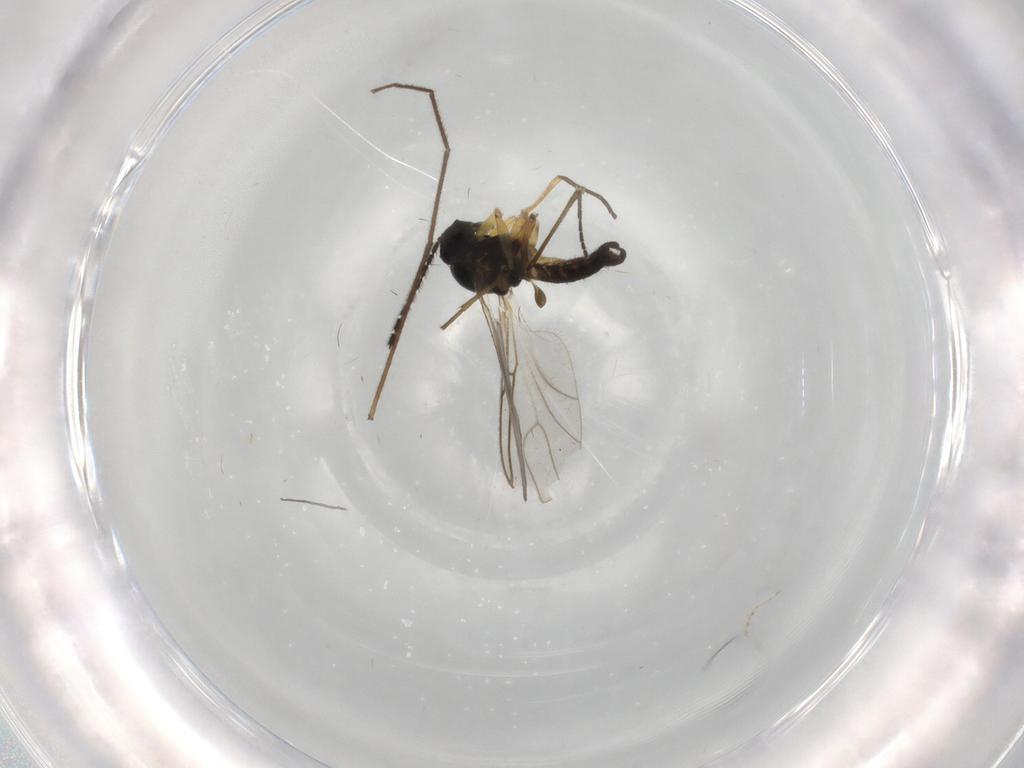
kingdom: Animalia
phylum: Arthropoda
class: Insecta
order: Diptera
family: Sciaridae
